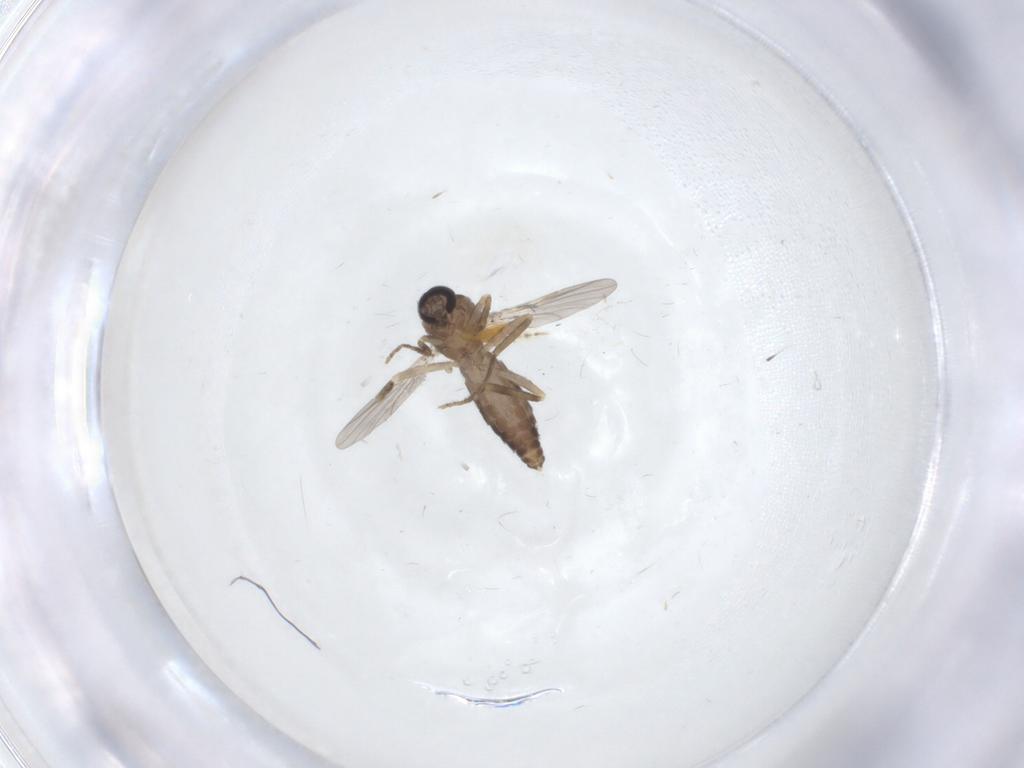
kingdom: Animalia
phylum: Arthropoda
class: Insecta
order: Diptera
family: Ceratopogonidae
